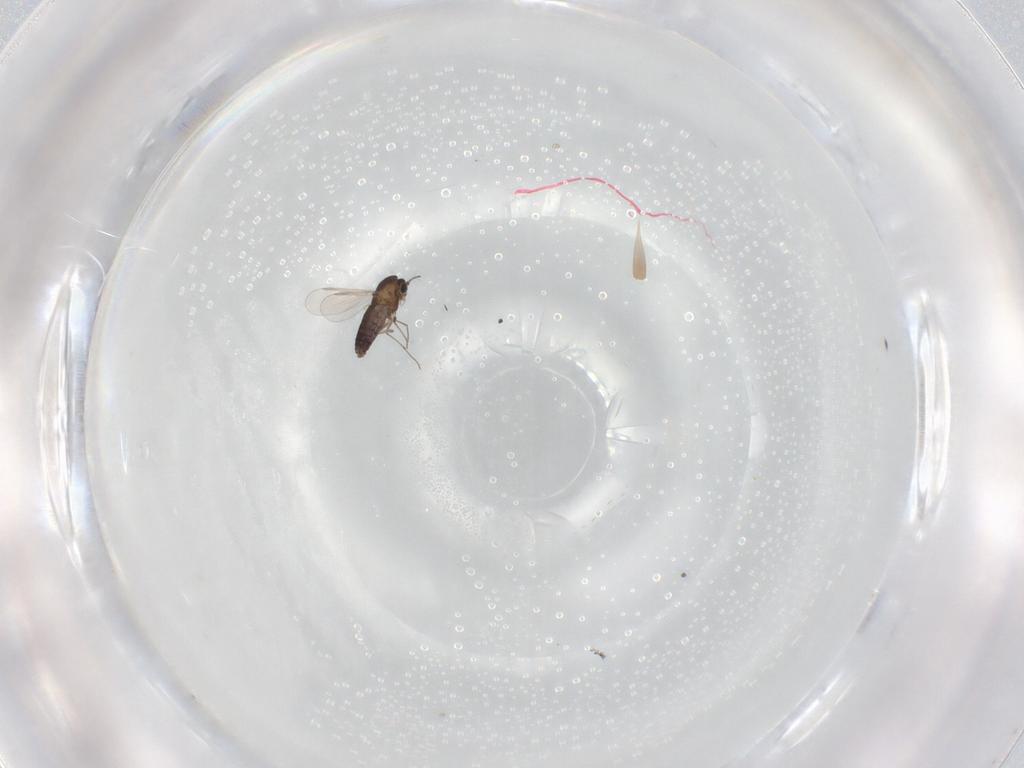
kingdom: Animalia
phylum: Arthropoda
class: Insecta
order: Diptera
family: Chironomidae
